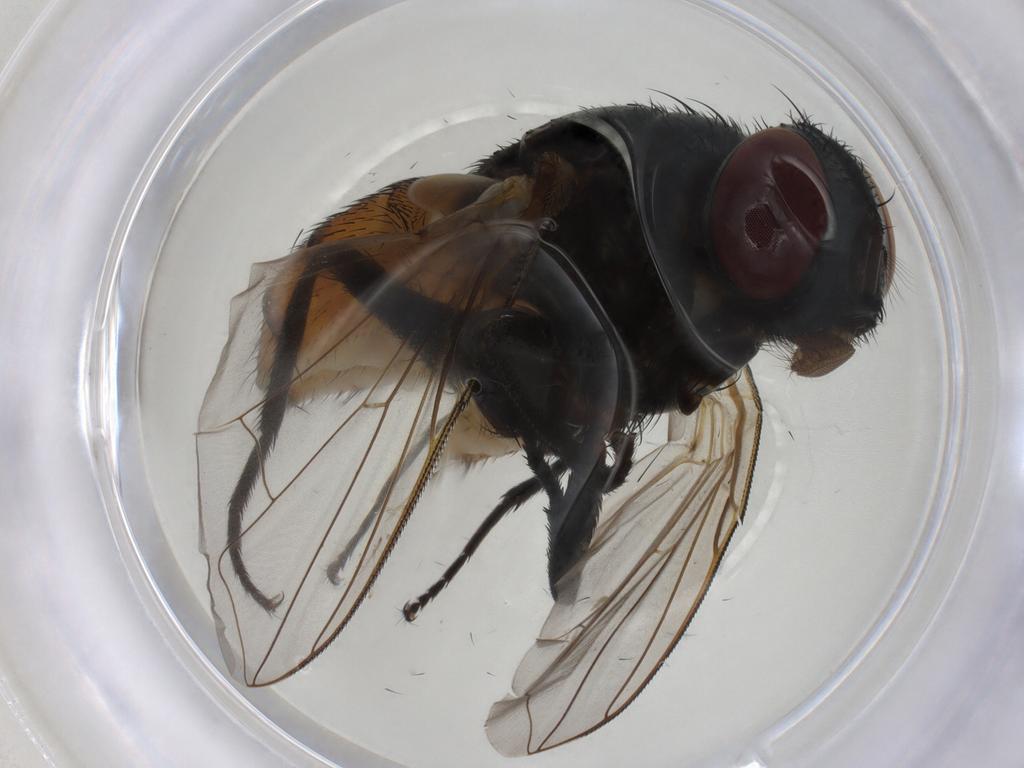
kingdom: Animalia
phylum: Arthropoda
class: Insecta
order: Diptera
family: Muscidae
